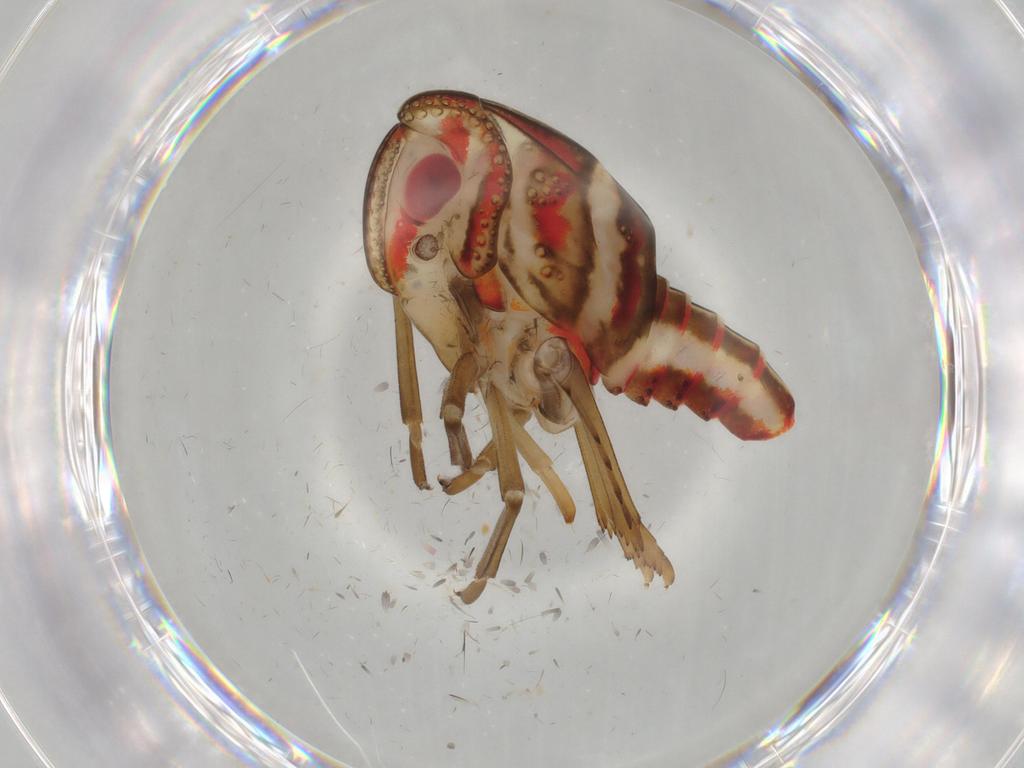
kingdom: Animalia
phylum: Arthropoda
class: Insecta
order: Hemiptera
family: Nogodinidae
